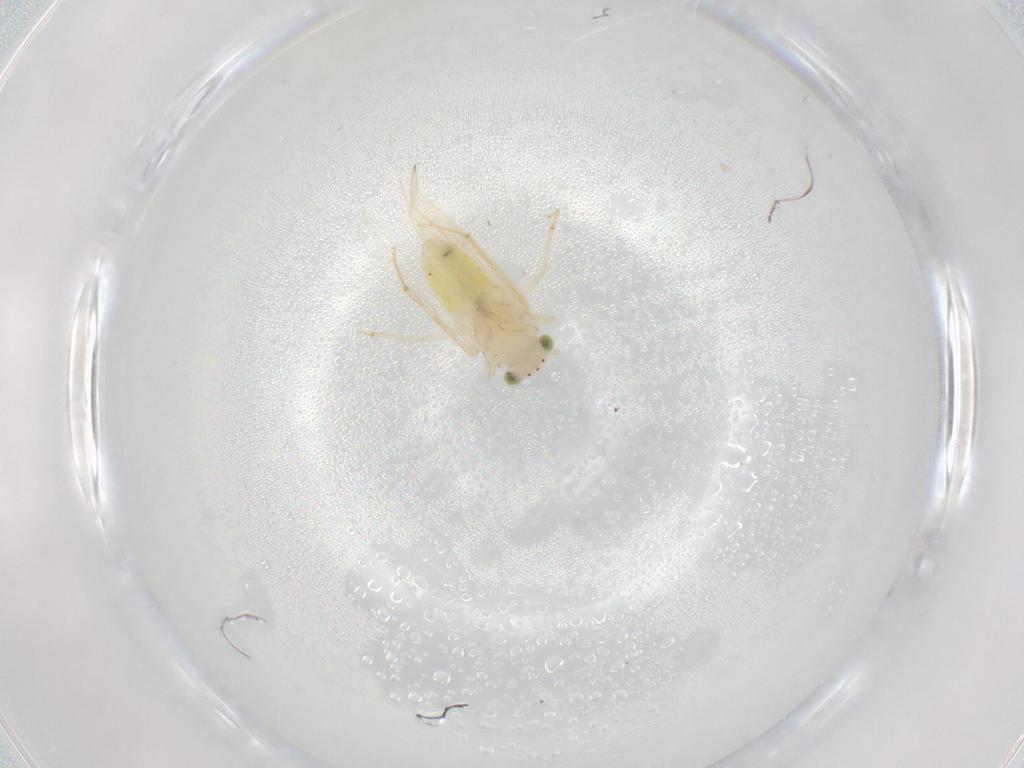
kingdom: Animalia
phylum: Arthropoda
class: Insecta
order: Psocodea
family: Lepidopsocidae
